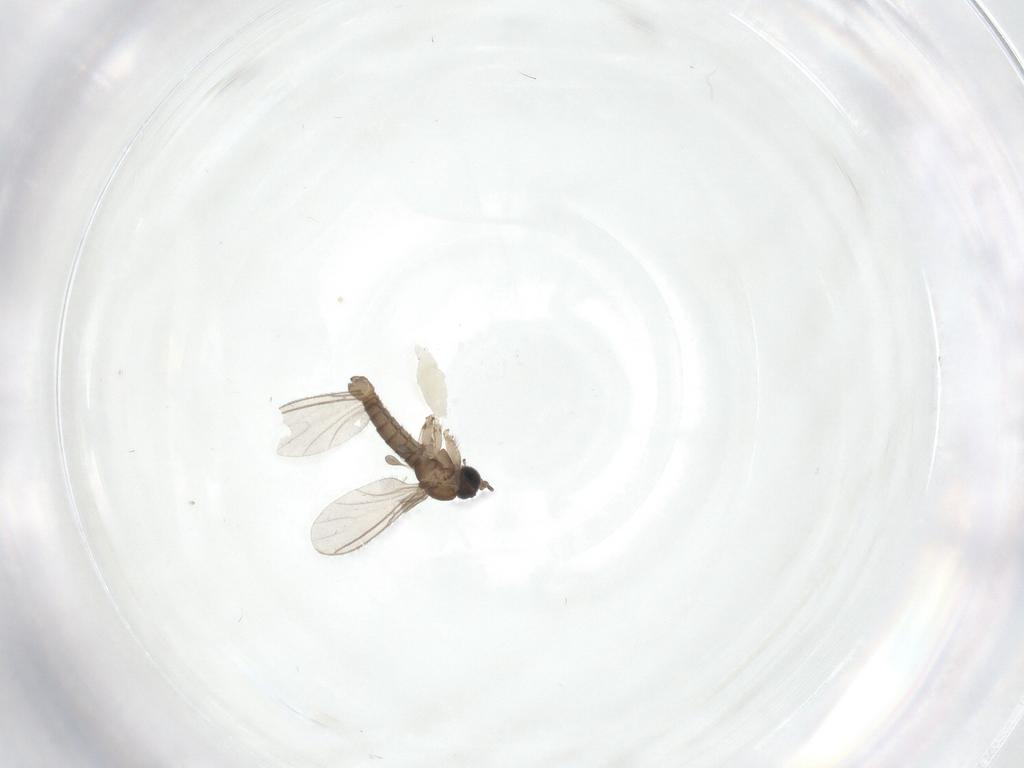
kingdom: Animalia
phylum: Arthropoda
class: Insecta
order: Diptera
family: Sciaridae
